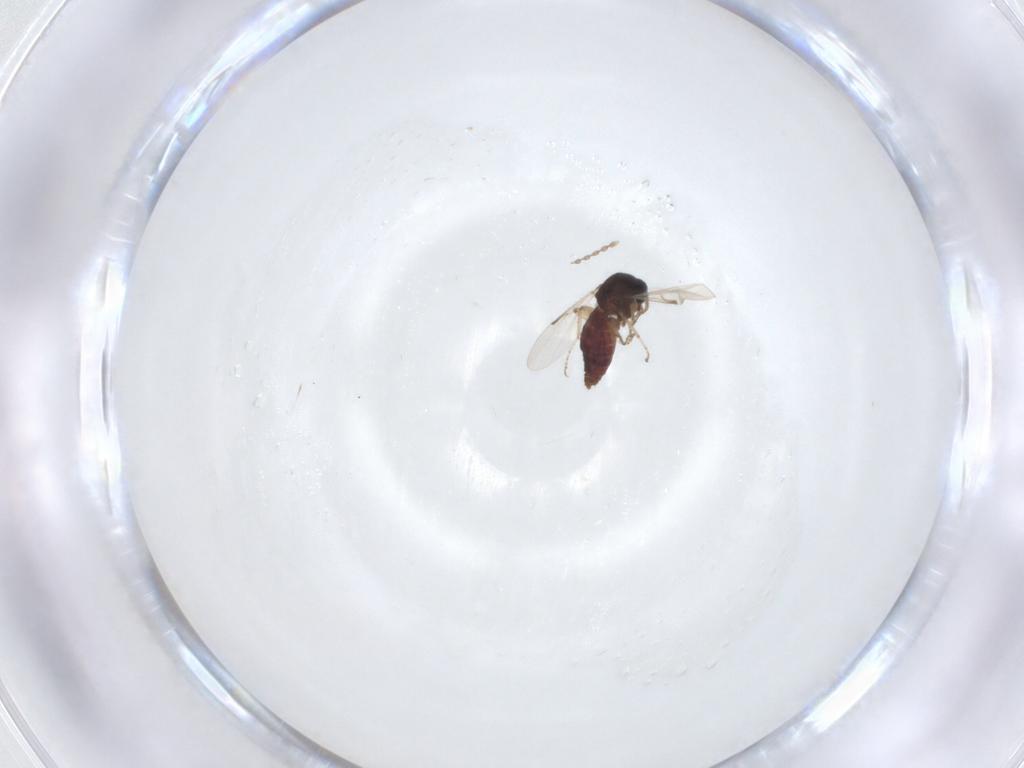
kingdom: Animalia
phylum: Arthropoda
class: Insecta
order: Diptera
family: Ceratopogonidae
